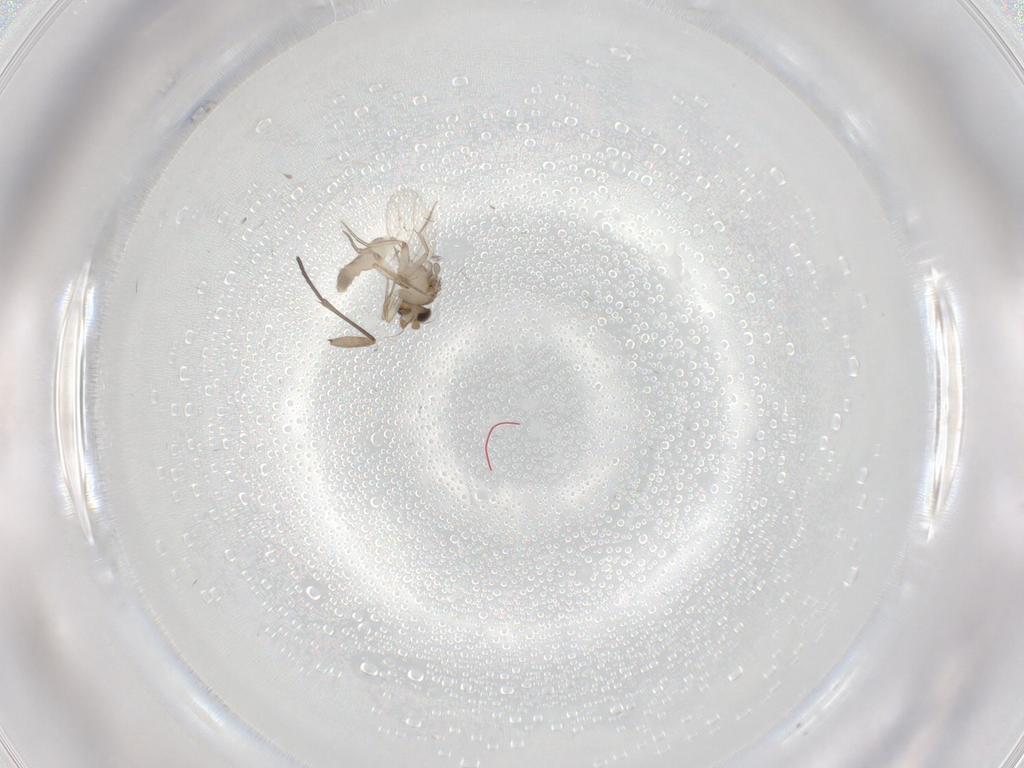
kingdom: Animalia
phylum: Arthropoda
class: Insecta
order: Diptera
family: Phoridae
